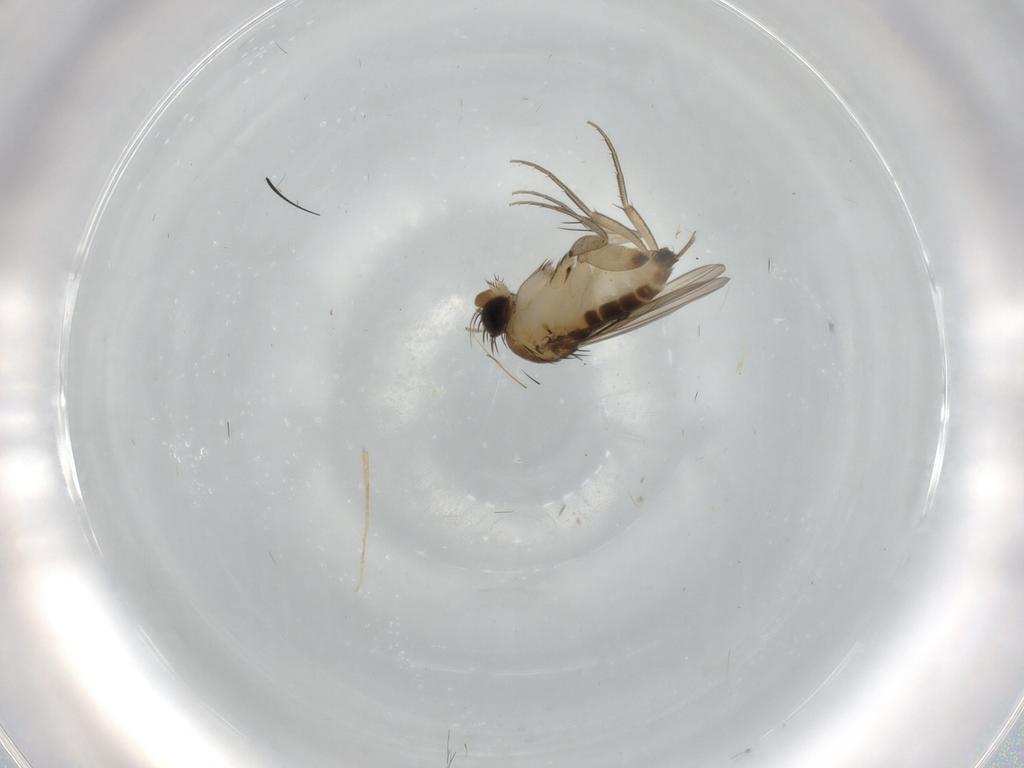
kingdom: Animalia
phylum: Arthropoda
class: Insecta
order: Diptera
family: Phoridae
